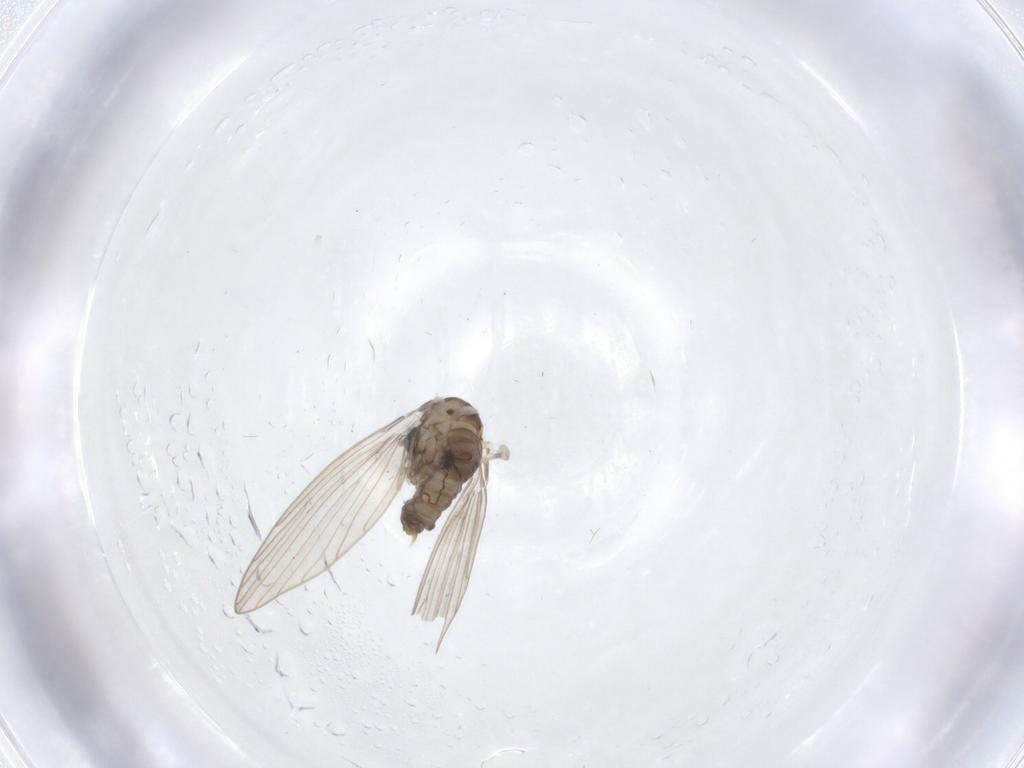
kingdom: Animalia
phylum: Arthropoda
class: Insecta
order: Diptera
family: Psychodidae
